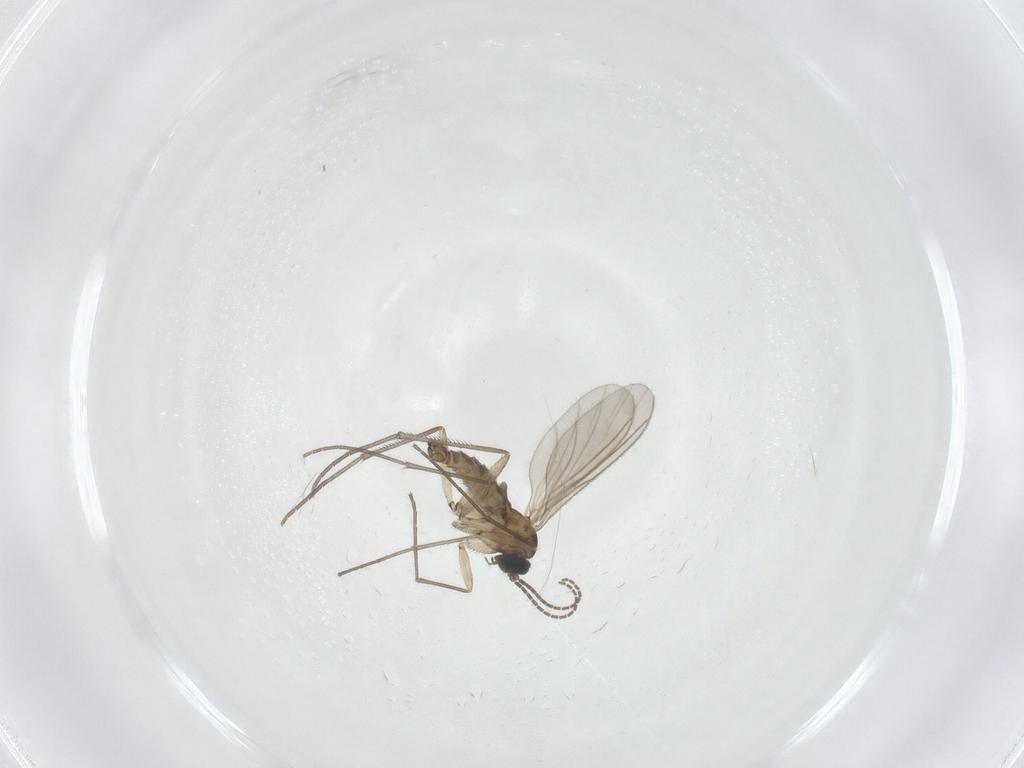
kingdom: Animalia
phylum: Arthropoda
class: Insecta
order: Diptera
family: Sciaridae
